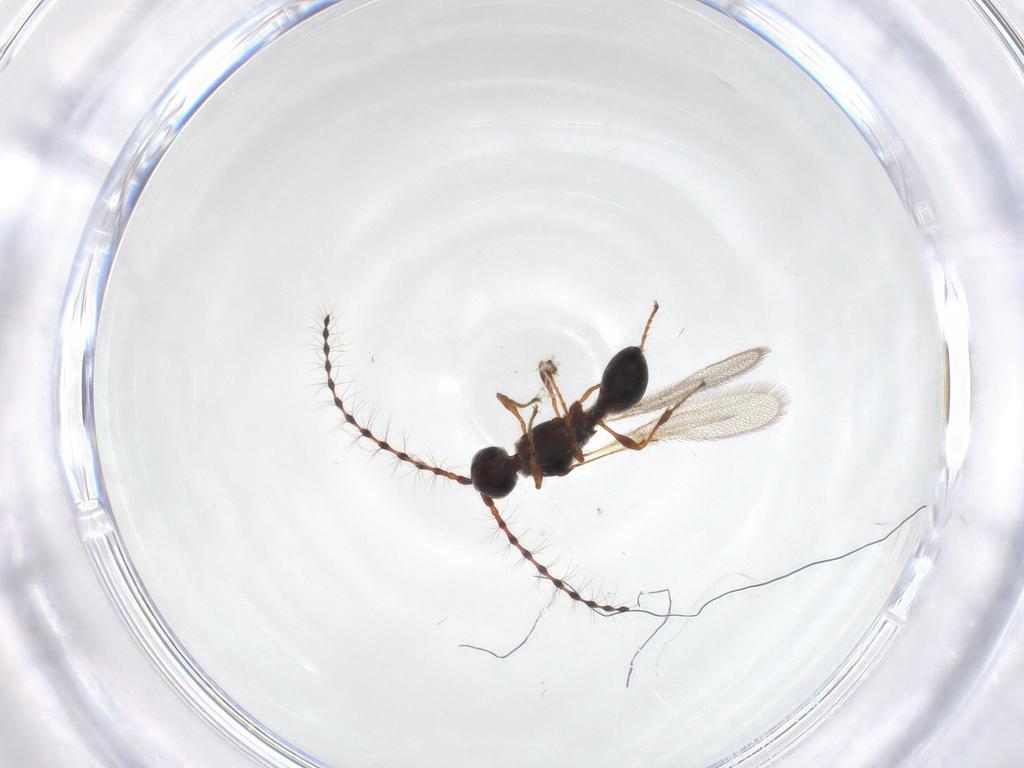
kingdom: Animalia
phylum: Arthropoda
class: Insecta
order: Hymenoptera
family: Diapriidae
